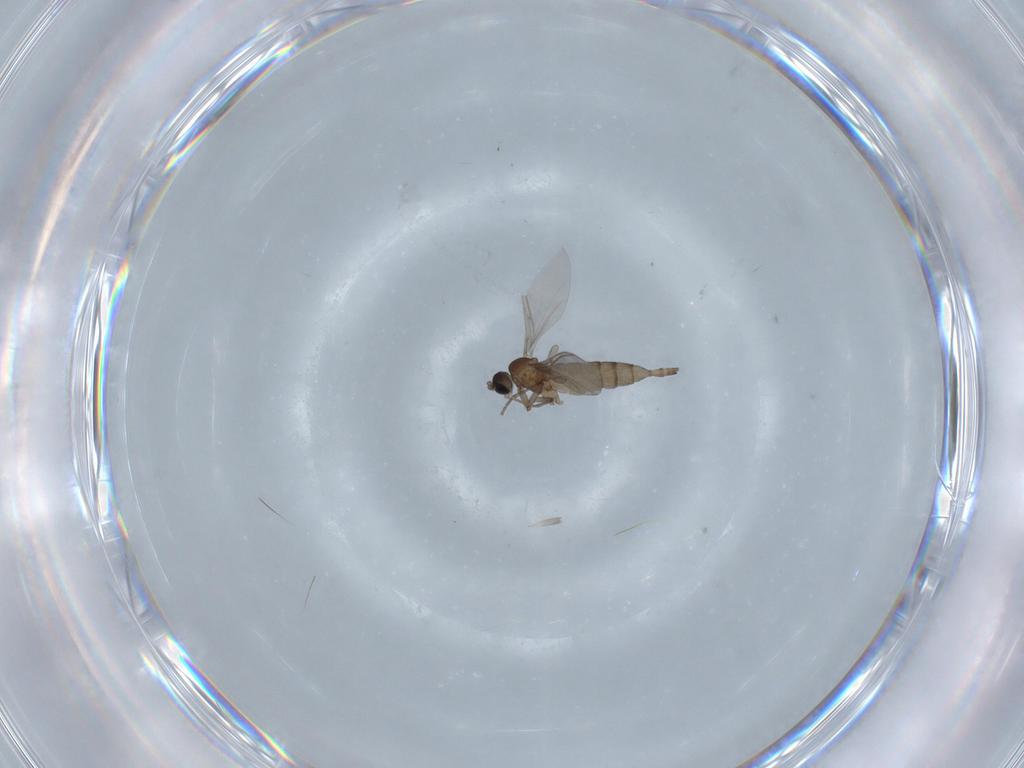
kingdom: Animalia
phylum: Arthropoda
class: Insecta
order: Diptera
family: Sciaridae
